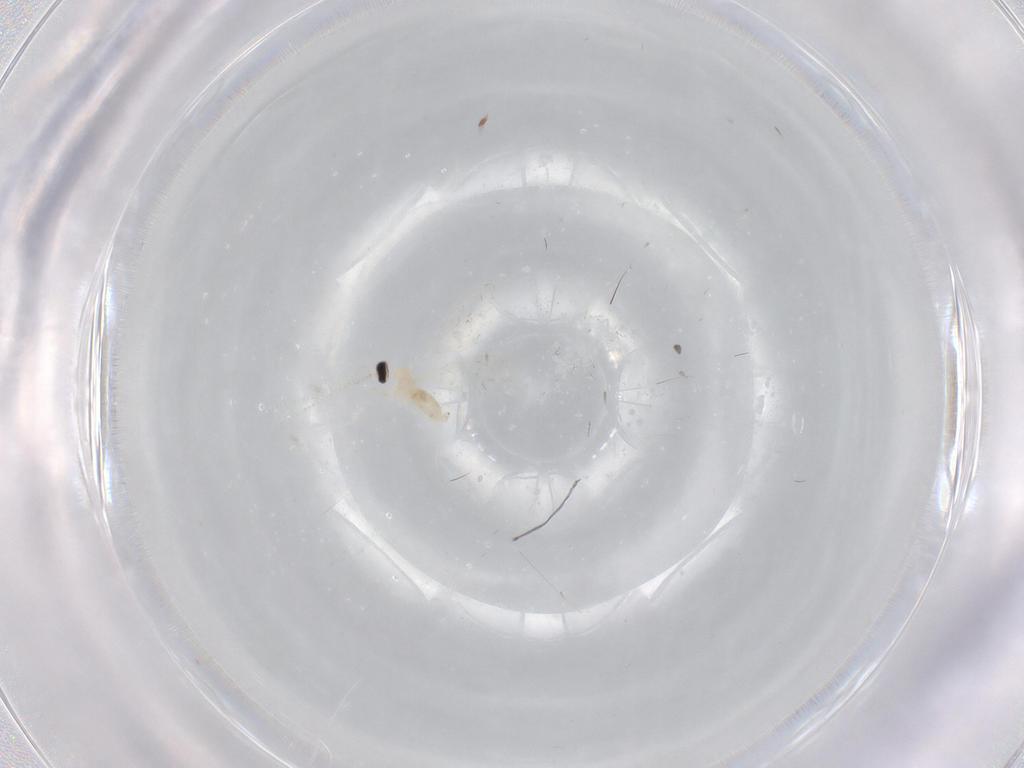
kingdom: Animalia
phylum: Arthropoda
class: Insecta
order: Diptera
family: Cecidomyiidae
